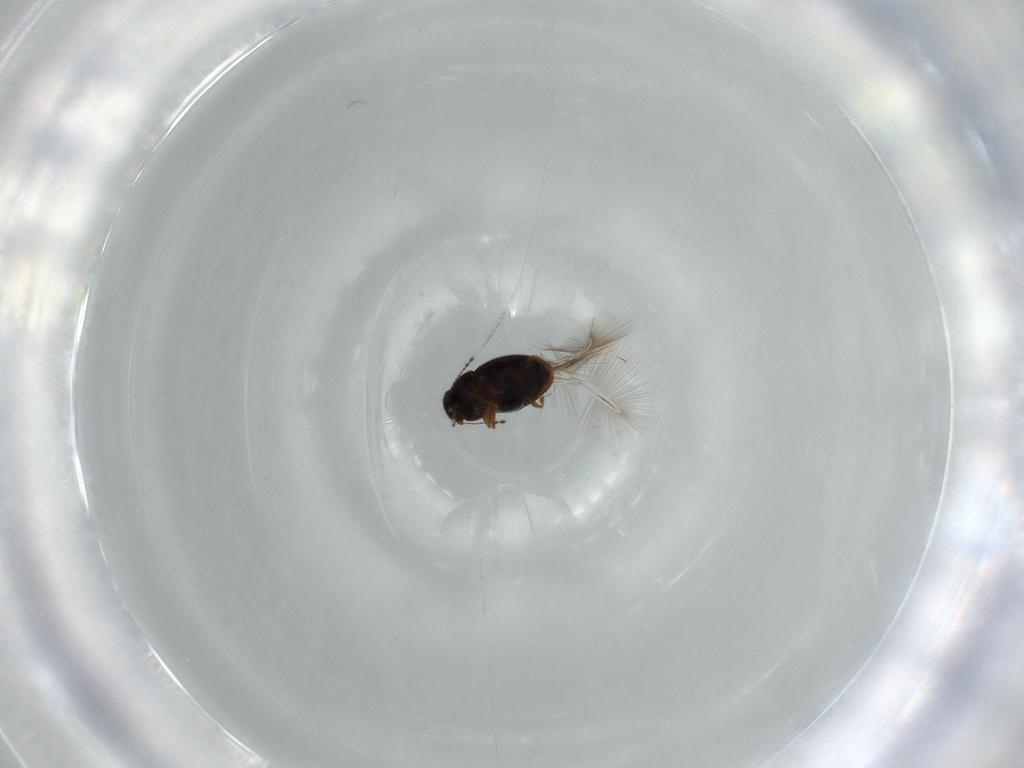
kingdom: Animalia
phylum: Arthropoda
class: Insecta
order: Coleoptera
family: Ptiliidae
